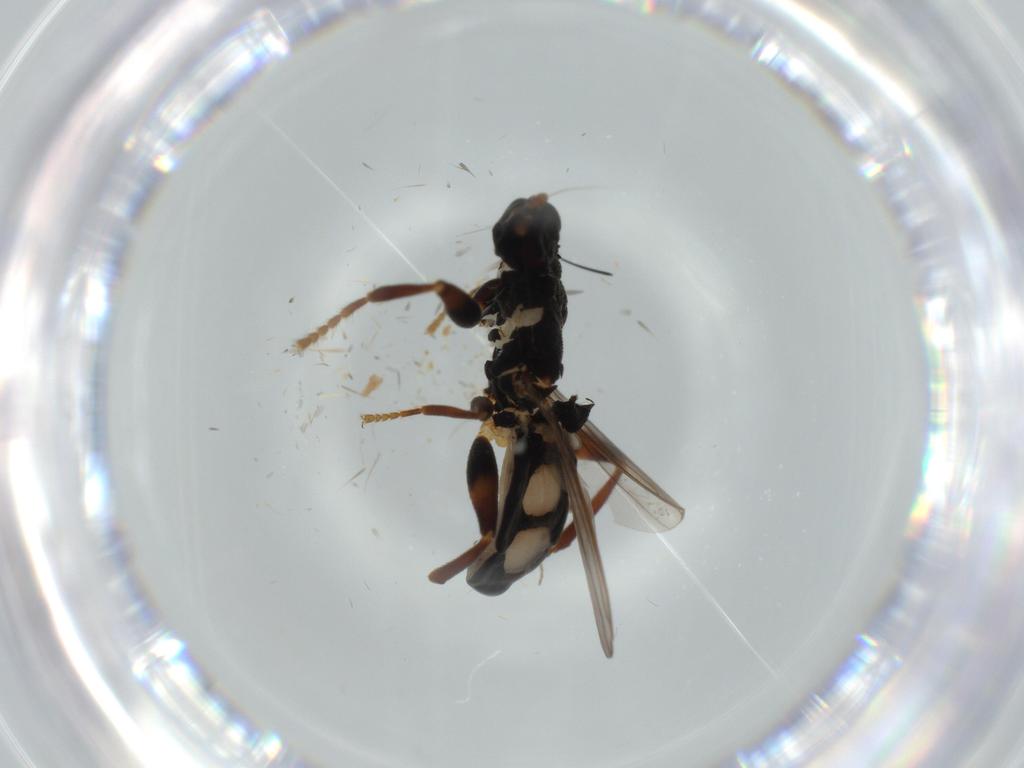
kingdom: Animalia
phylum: Arthropoda
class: Insecta
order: Diptera
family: Sphaeroceridae
